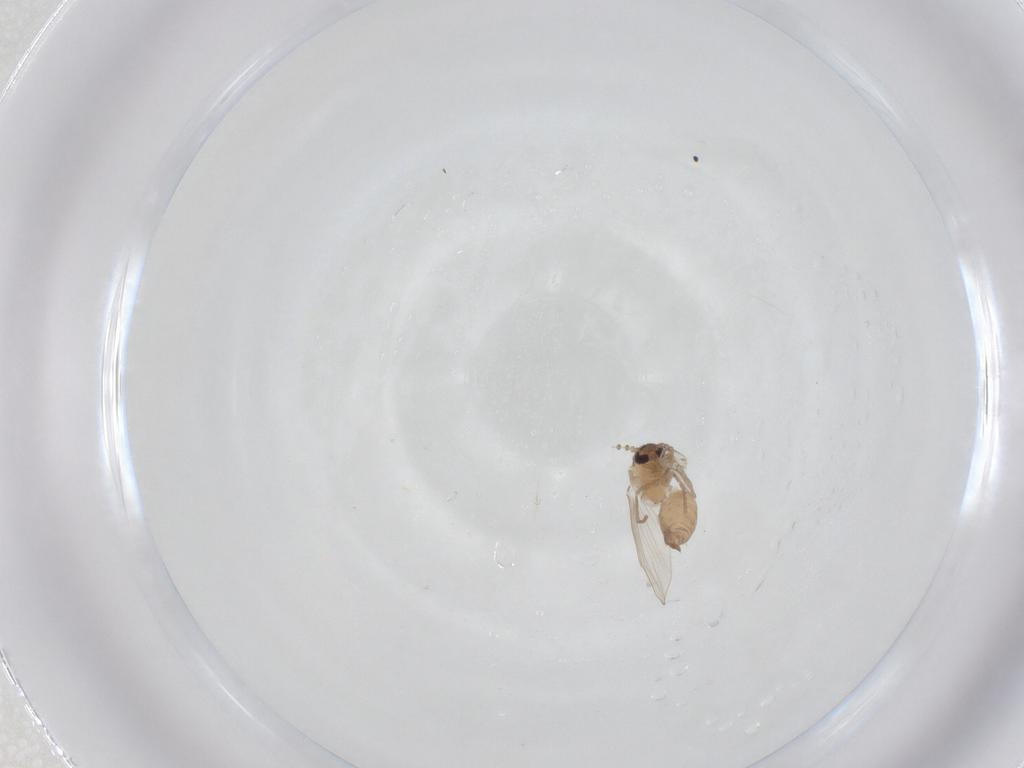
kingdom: Animalia
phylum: Arthropoda
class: Insecta
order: Diptera
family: Psychodidae
